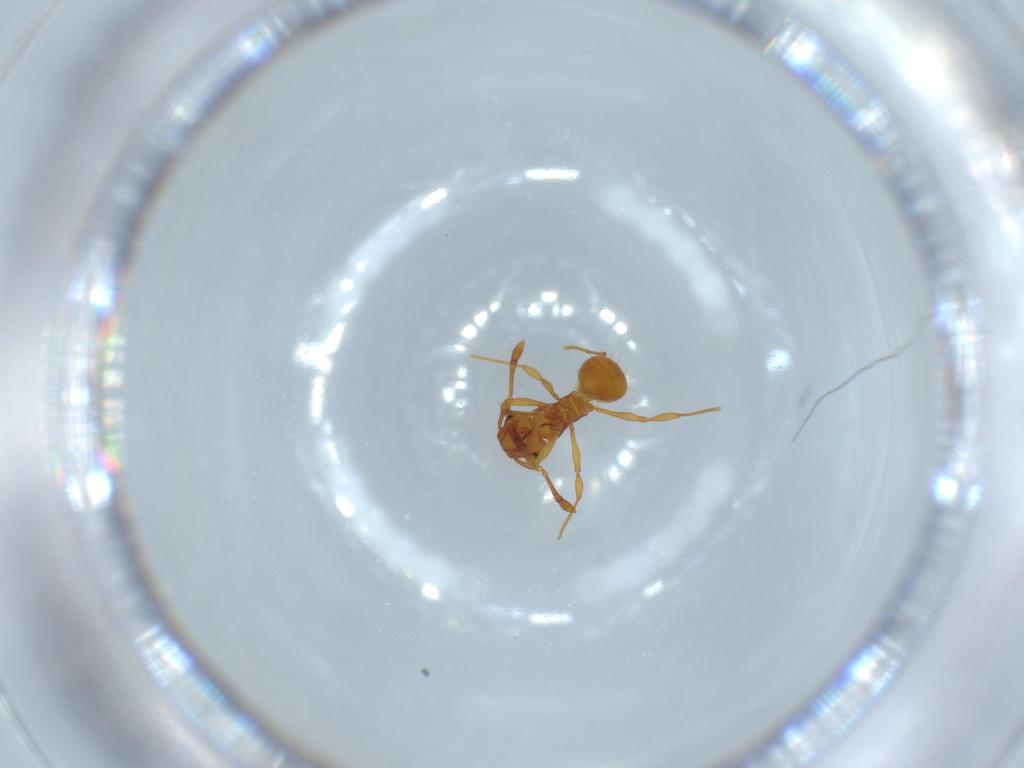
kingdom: Animalia
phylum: Arthropoda
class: Insecta
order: Hymenoptera
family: Formicidae
